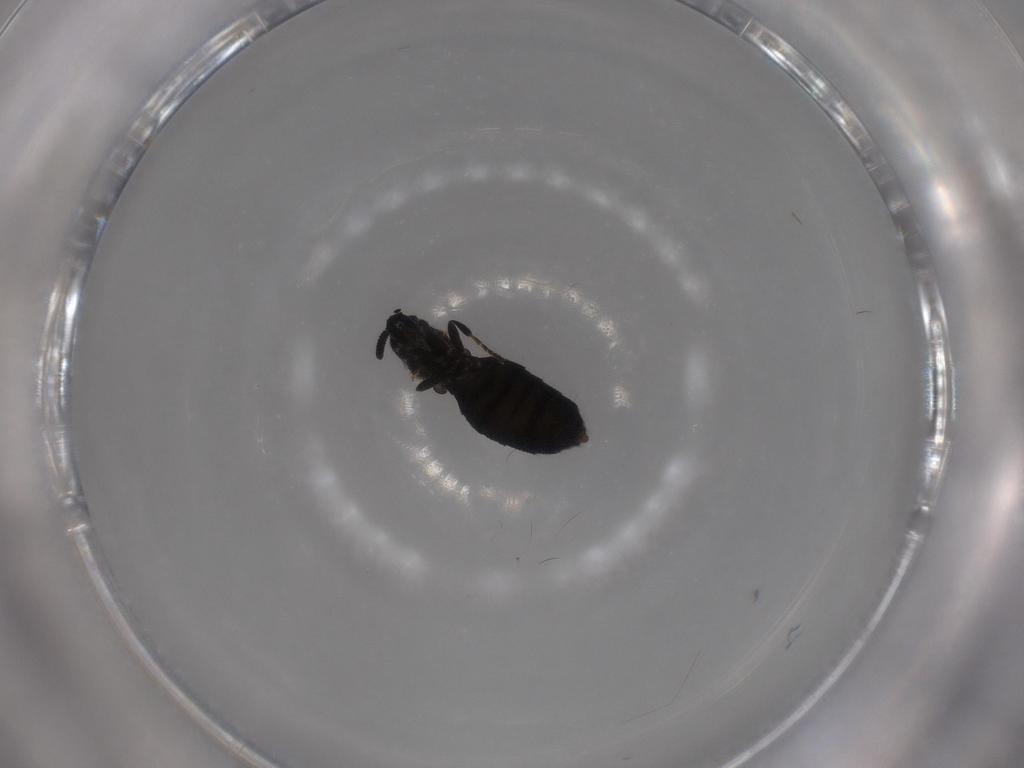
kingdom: Animalia
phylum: Arthropoda
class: Insecta
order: Diptera
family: Scatopsidae
